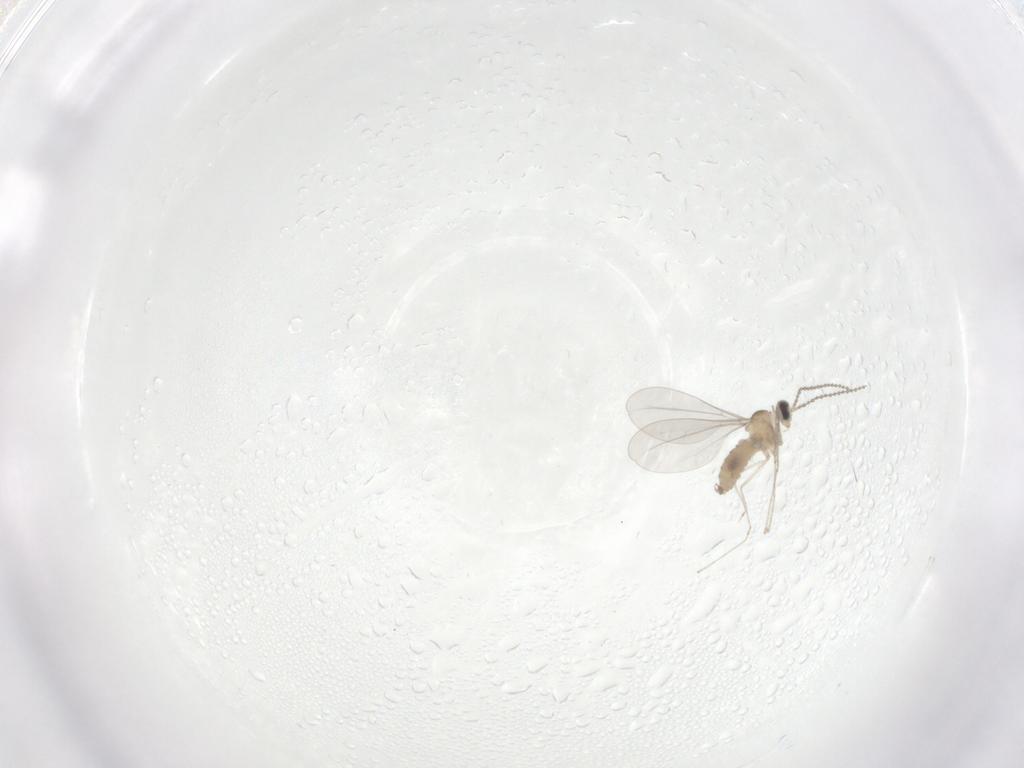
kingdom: Animalia
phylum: Arthropoda
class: Insecta
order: Diptera
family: Cecidomyiidae
